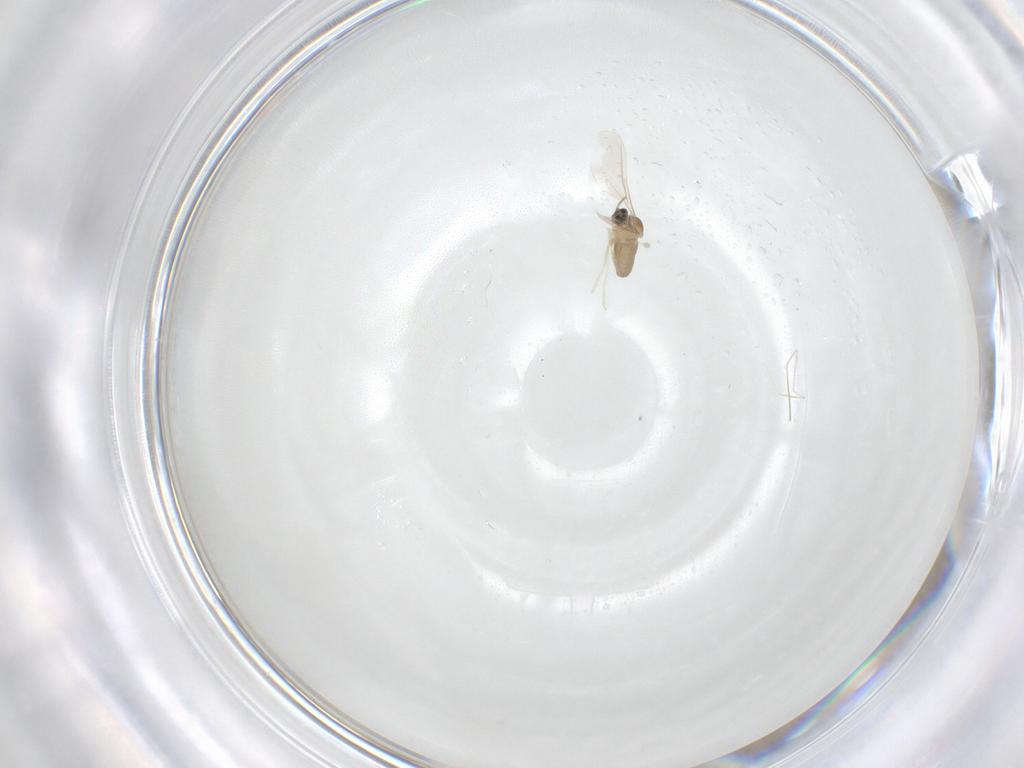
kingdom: Animalia
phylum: Arthropoda
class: Insecta
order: Diptera
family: Cecidomyiidae
